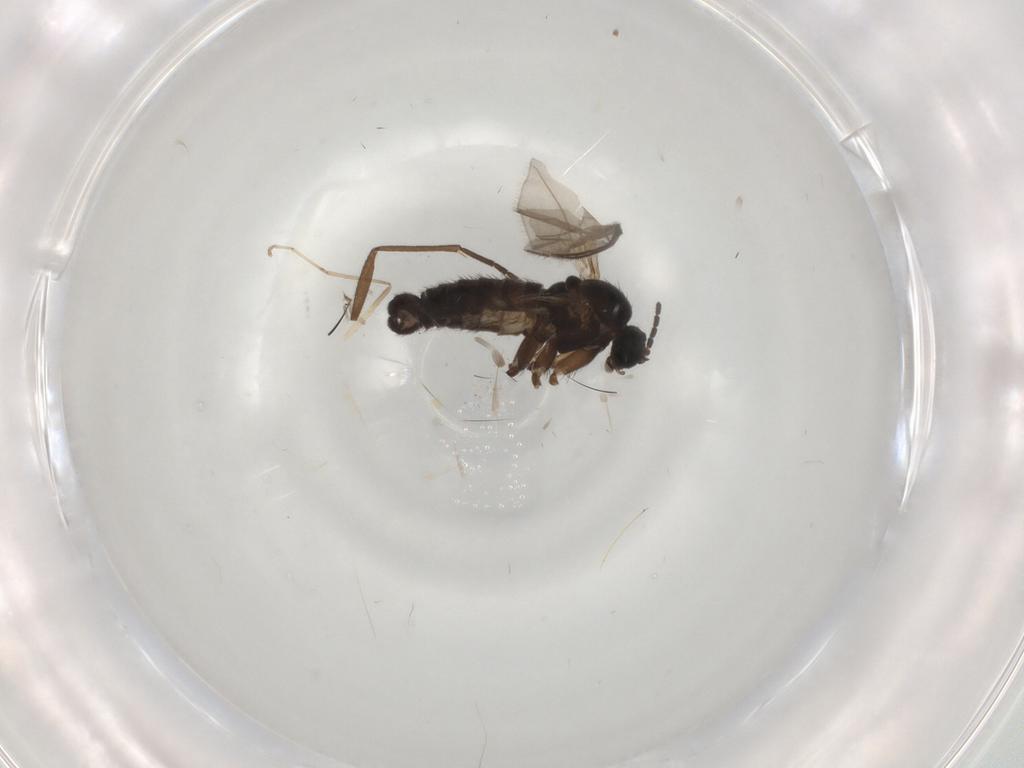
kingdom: Animalia
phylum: Arthropoda
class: Insecta
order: Diptera
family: Sciaridae
